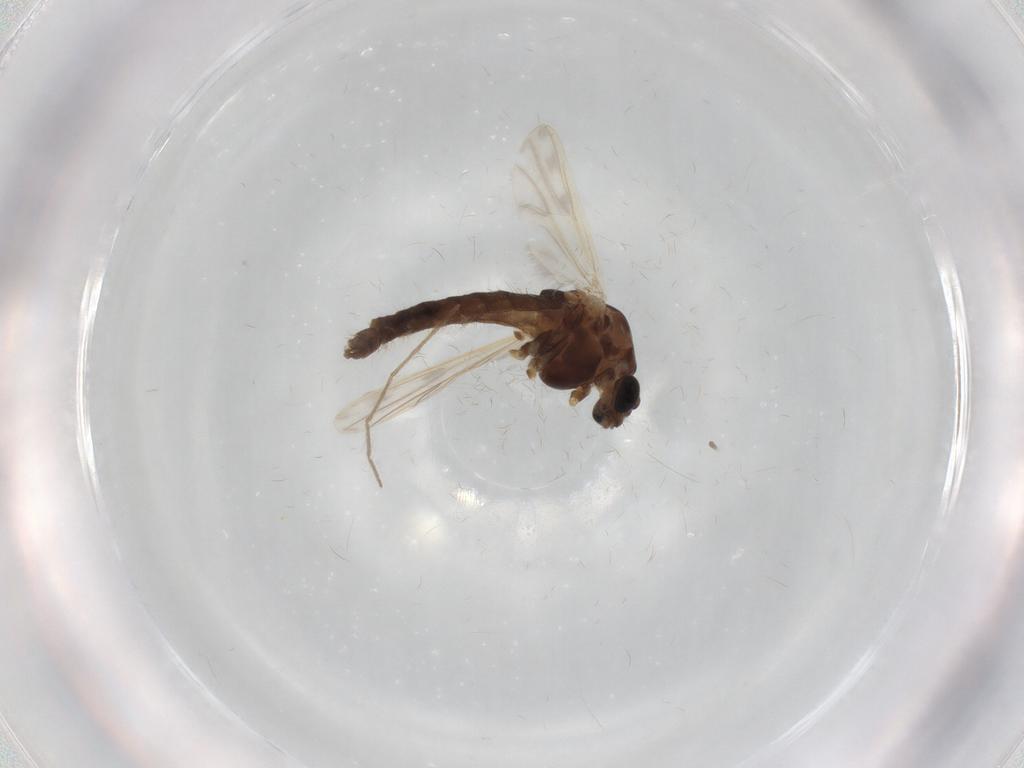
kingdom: Animalia
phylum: Arthropoda
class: Insecta
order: Diptera
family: Chironomidae
